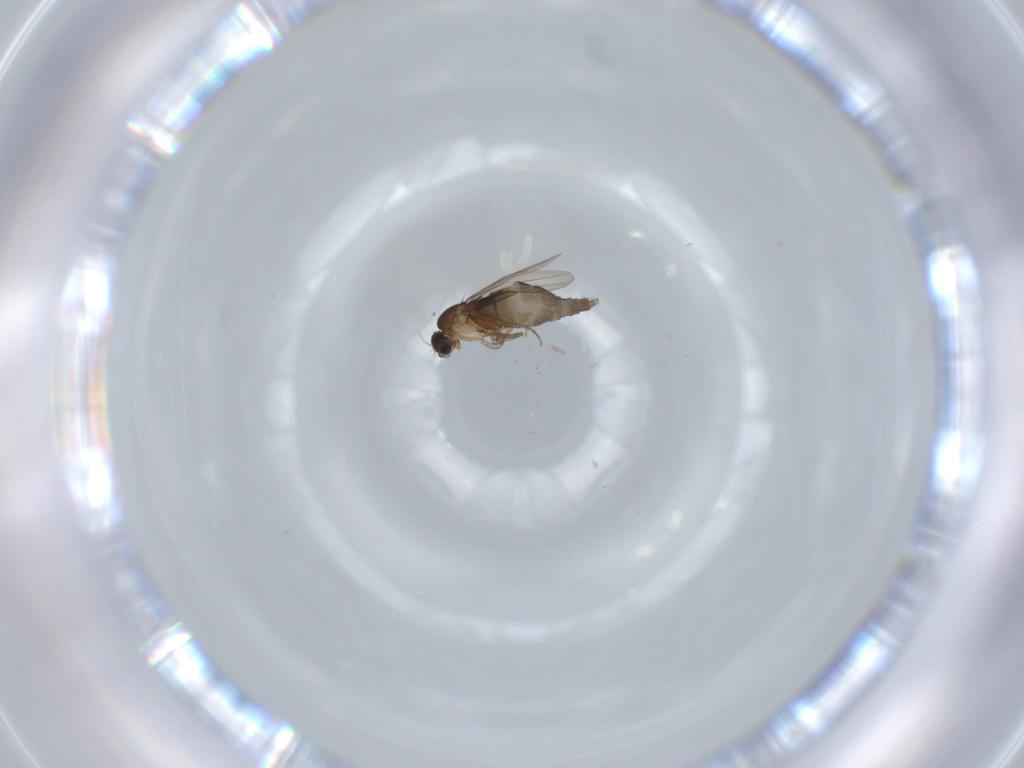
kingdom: Animalia
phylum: Arthropoda
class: Insecta
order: Diptera
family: Phoridae
